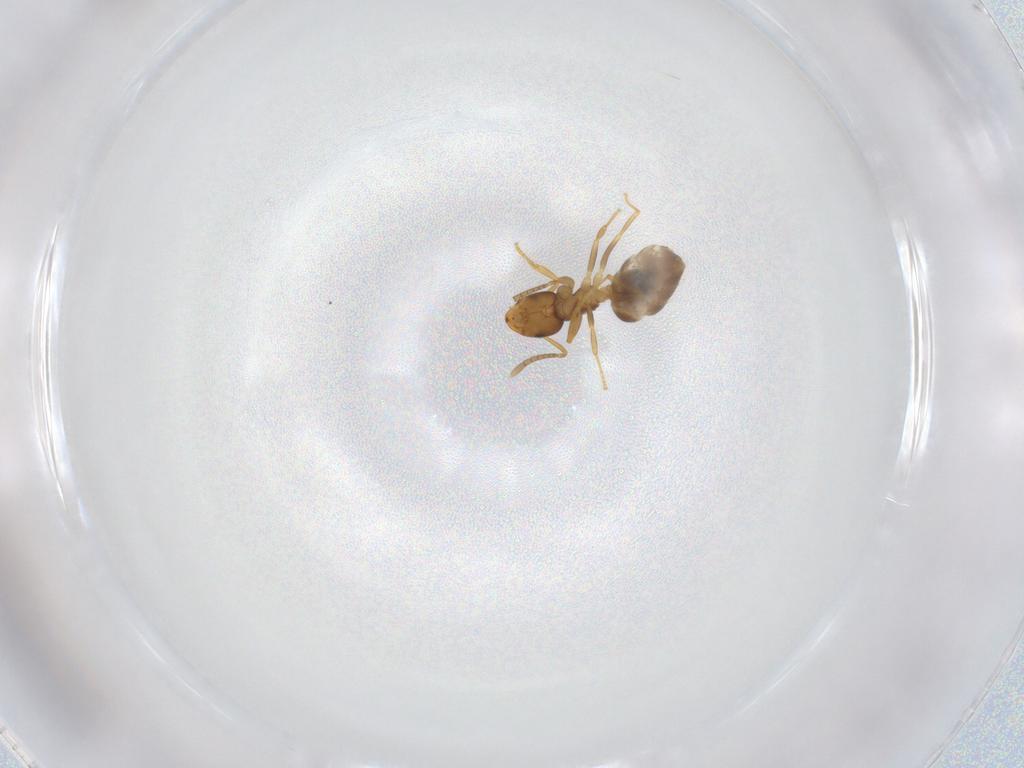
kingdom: Animalia
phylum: Arthropoda
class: Insecta
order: Hymenoptera
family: Formicidae
